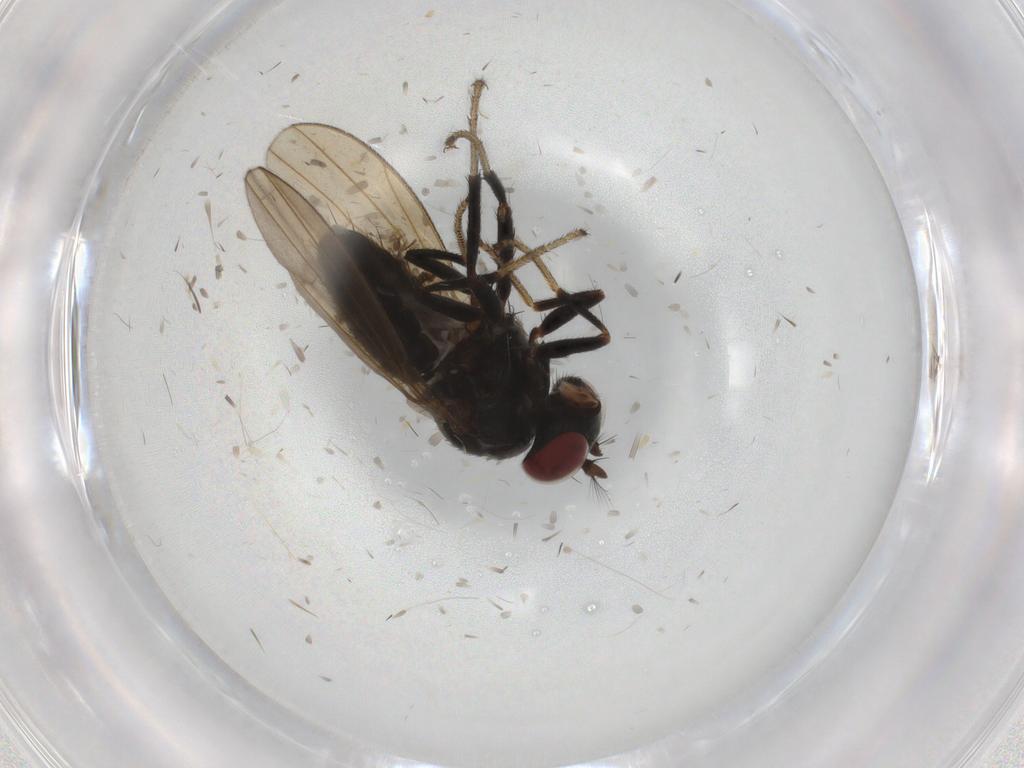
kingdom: Animalia
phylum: Arthropoda
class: Insecta
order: Diptera
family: Ephydridae
